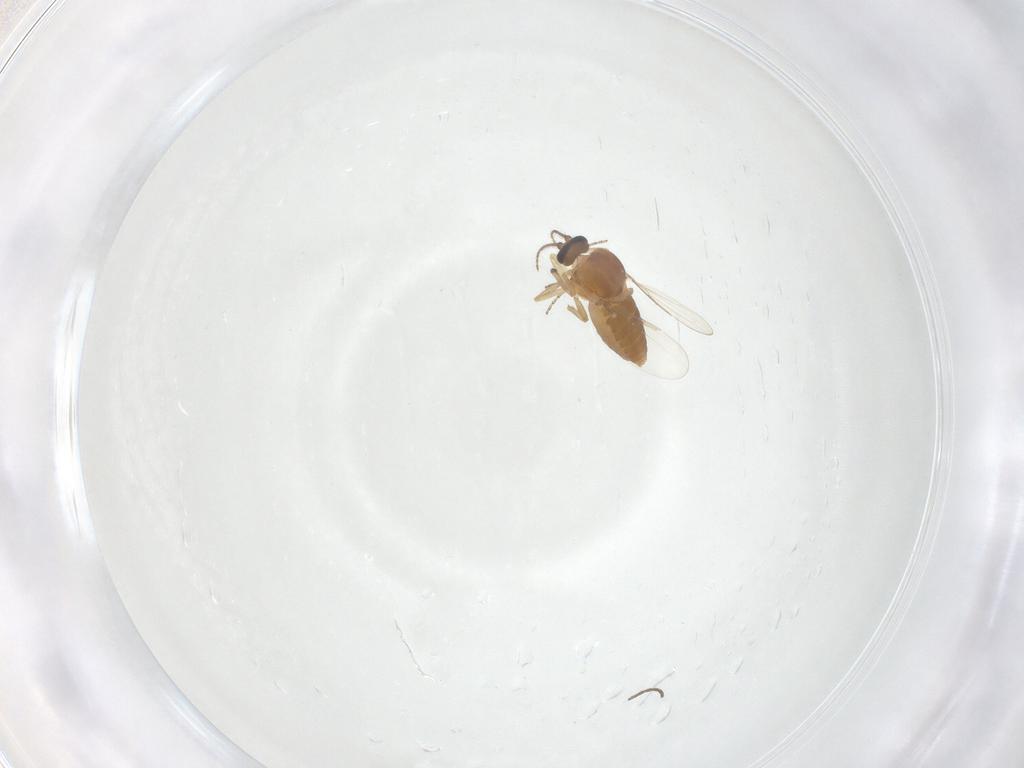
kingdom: Animalia
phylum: Arthropoda
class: Insecta
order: Diptera
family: Ceratopogonidae
